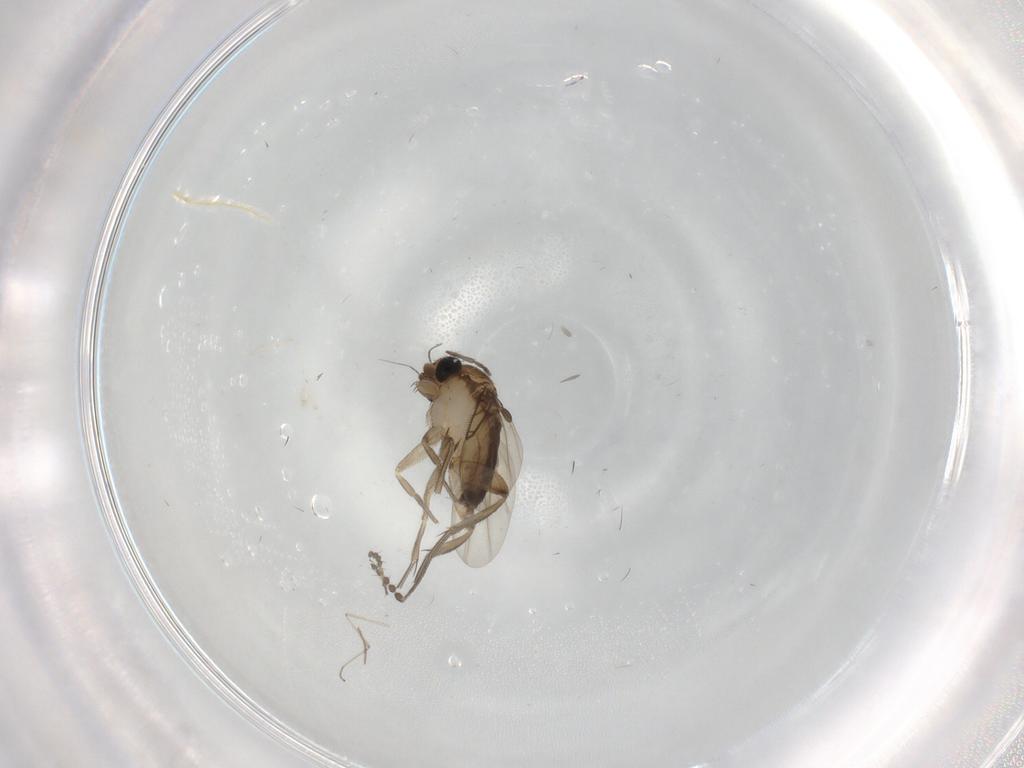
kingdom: Animalia
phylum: Arthropoda
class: Insecta
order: Diptera
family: Limoniidae
